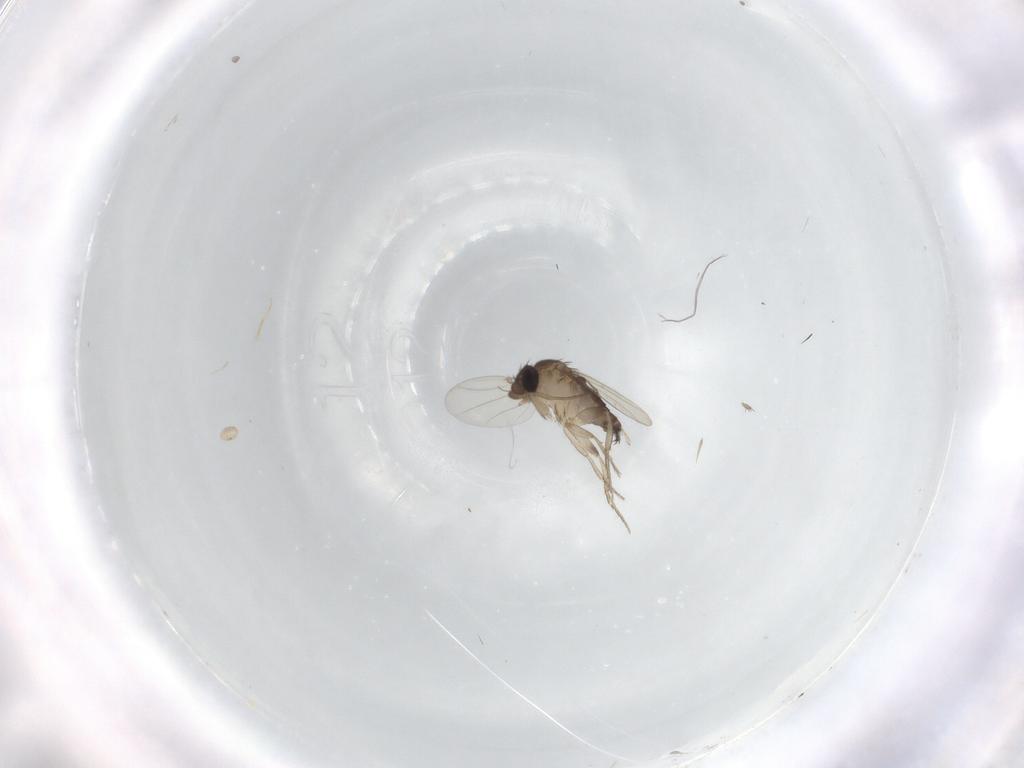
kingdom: Animalia
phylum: Arthropoda
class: Insecta
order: Diptera
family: Phoridae
